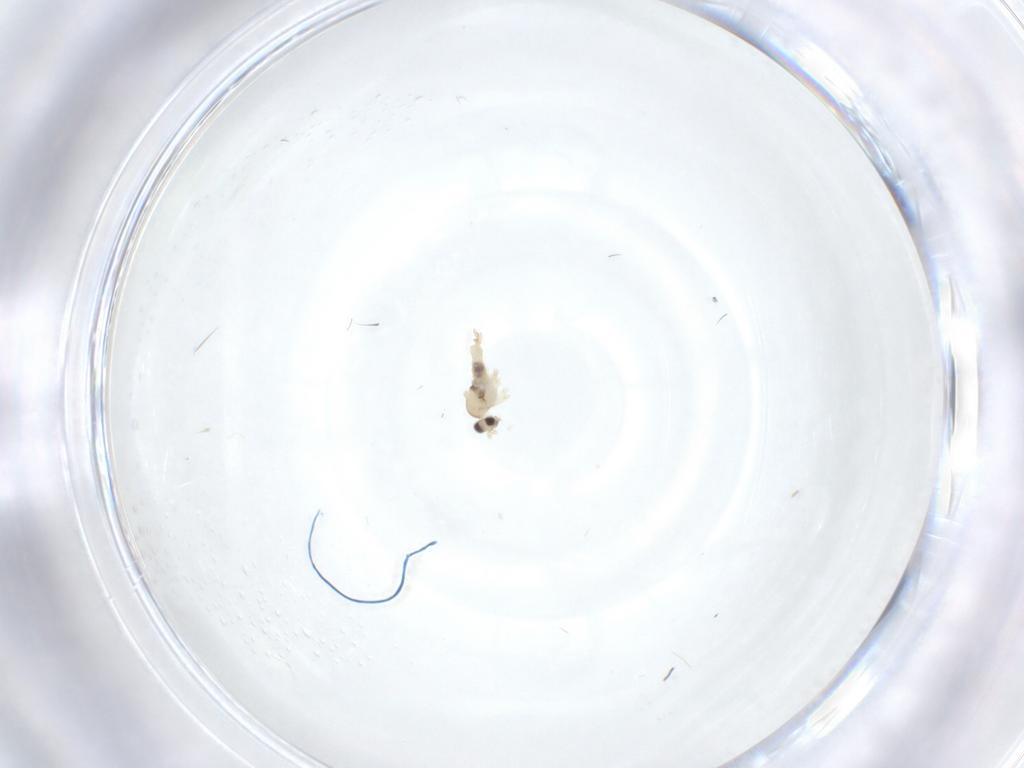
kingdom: Animalia
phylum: Arthropoda
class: Insecta
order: Diptera
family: Cecidomyiidae
